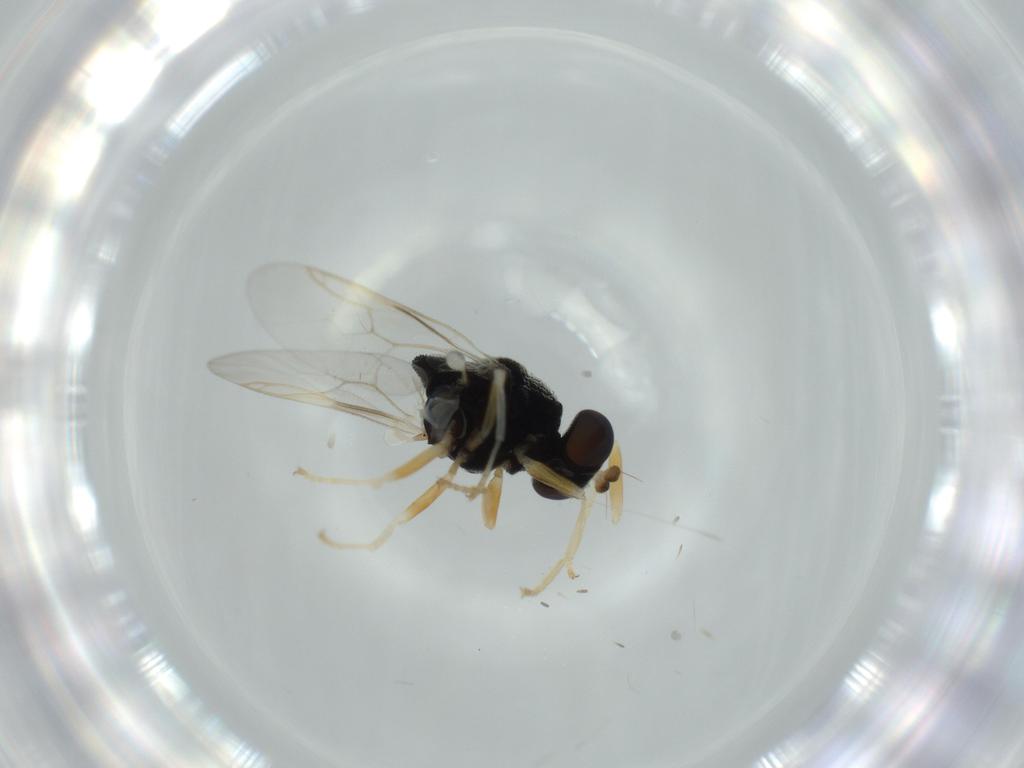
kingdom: Animalia
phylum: Arthropoda
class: Insecta
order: Diptera
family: Stratiomyidae
